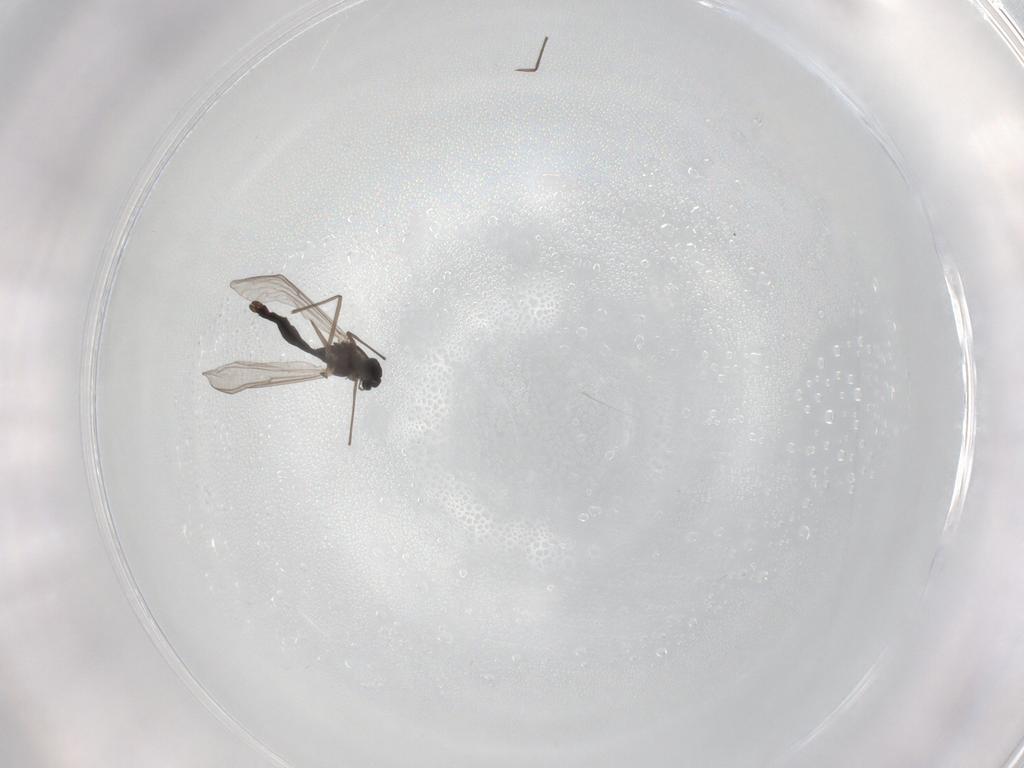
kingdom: Animalia
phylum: Arthropoda
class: Insecta
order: Diptera
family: Chironomidae
